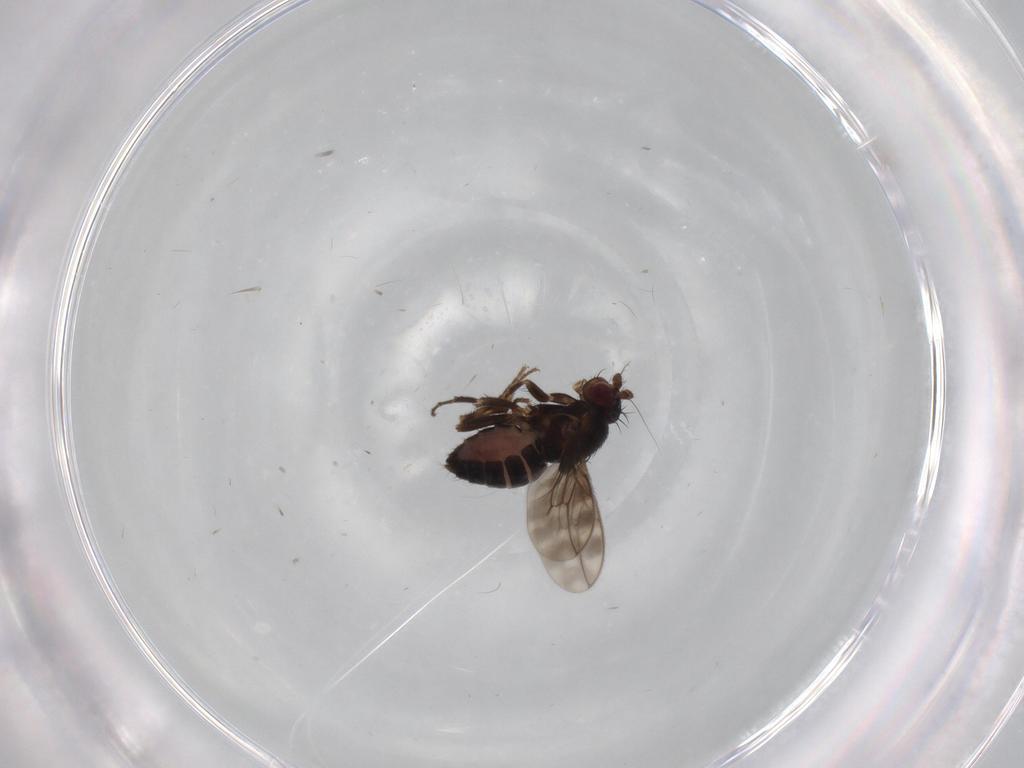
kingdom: Animalia
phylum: Arthropoda
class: Insecta
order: Diptera
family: Sphaeroceridae
